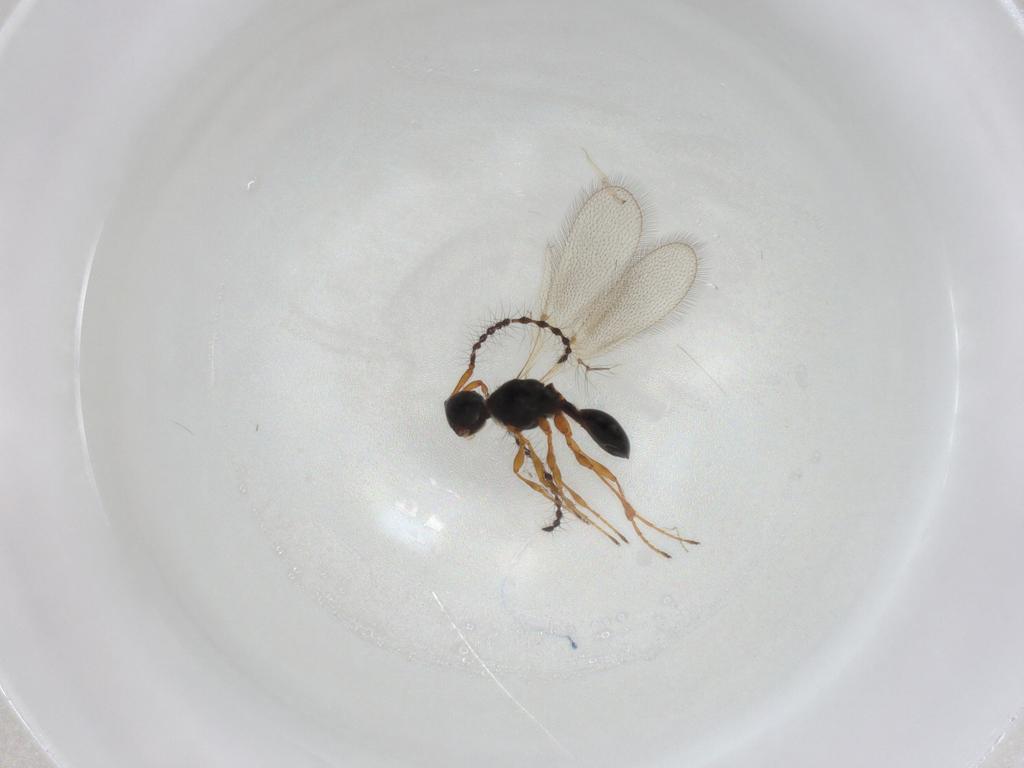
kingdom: Animalia
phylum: Arthropoda
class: Insecta
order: Hymenoptera
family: Diapriidae
